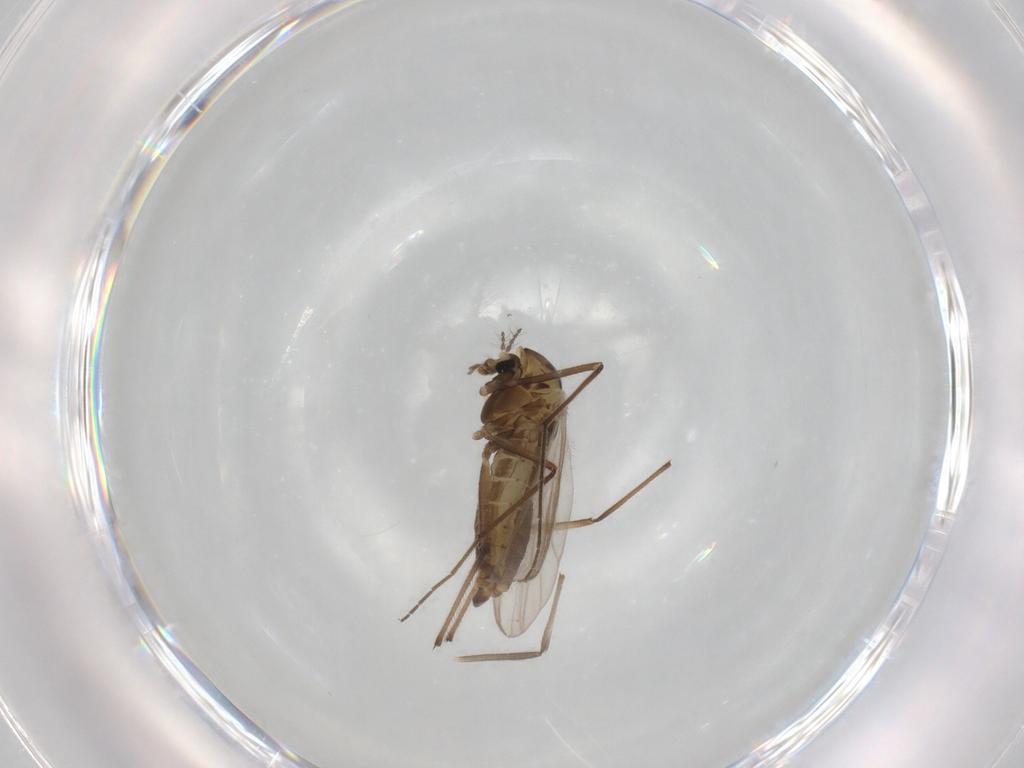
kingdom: Animalia
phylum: Arthropoda
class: Insecta
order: Diptera
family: Chironomidae
